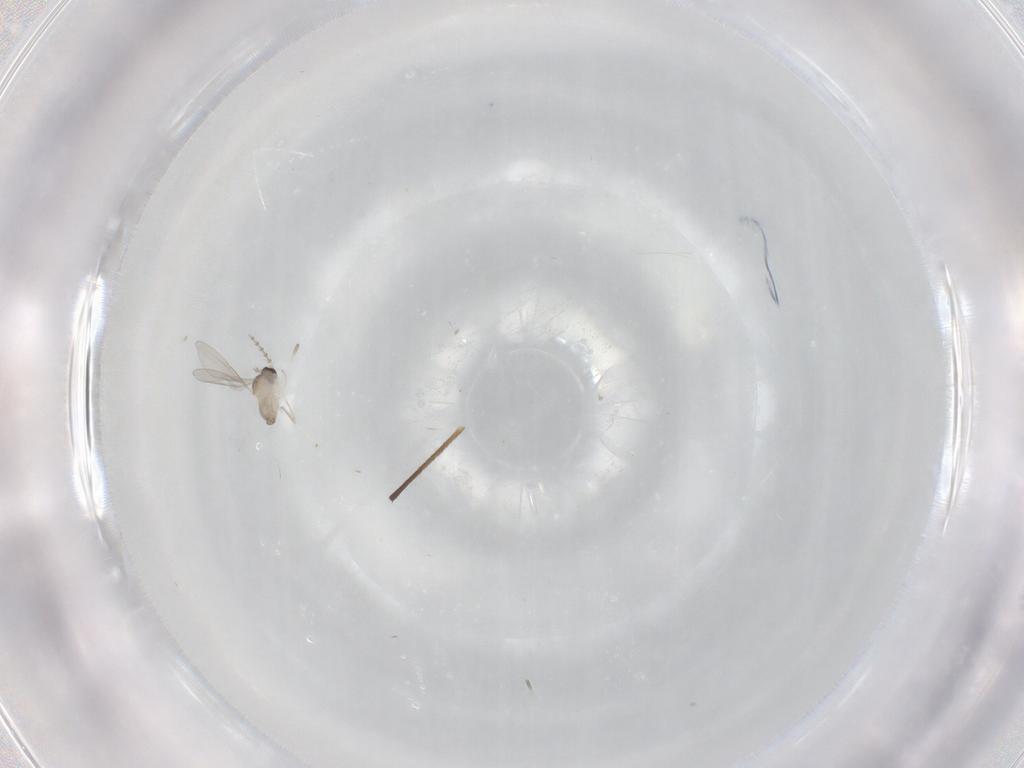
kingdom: Animalia
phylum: Arthropoda
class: Insecta
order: Diptera
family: Cecidomyiidae
